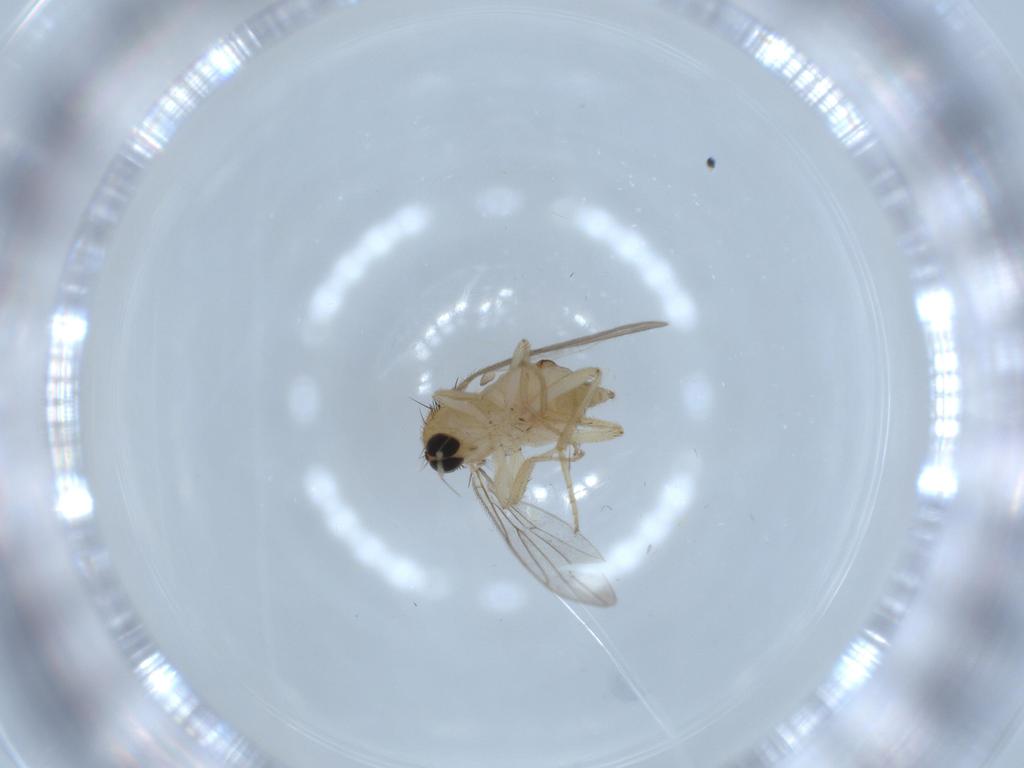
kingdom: Animalia
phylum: Arthropoda
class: Insecta
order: Diptera
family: Hybotidae
